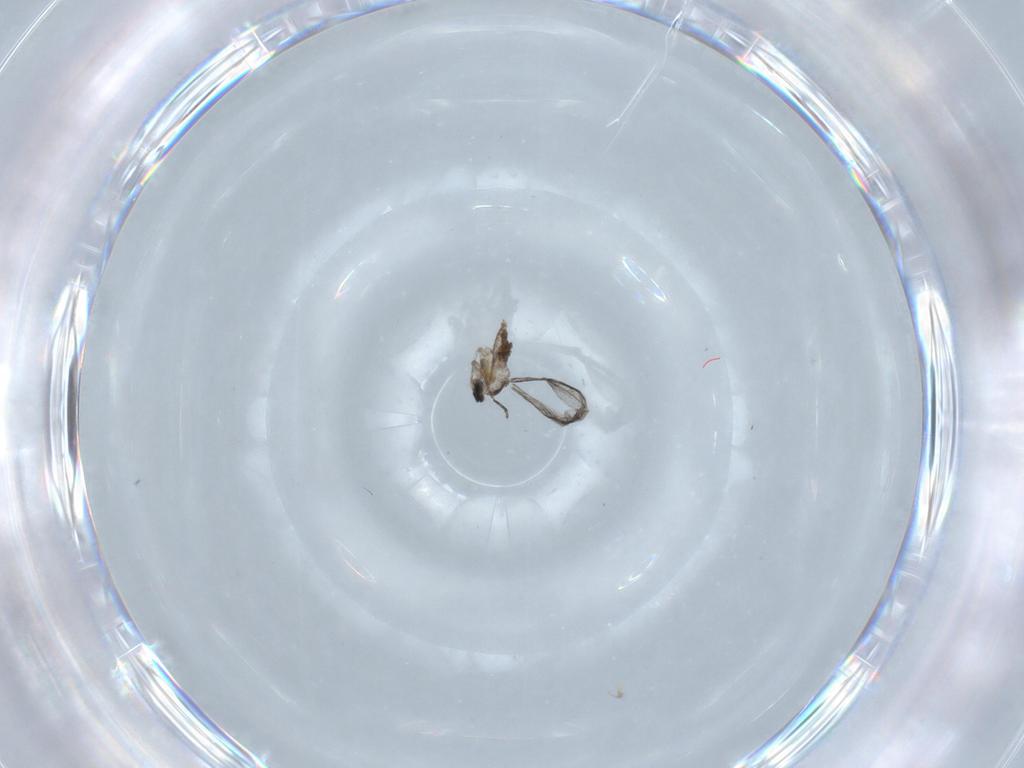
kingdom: Animalia
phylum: Arthropoda
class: Insecta
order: Diptera
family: Cecidomyiidae
